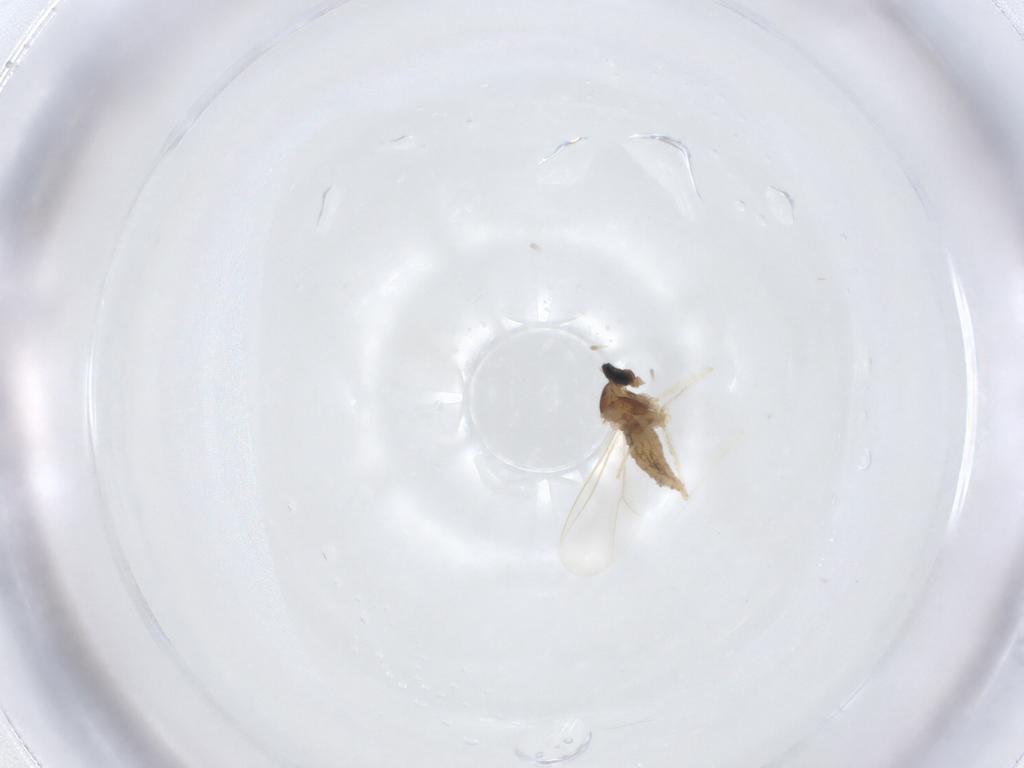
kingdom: Animalia
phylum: Arthropoda
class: Insecta
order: Diptera
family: Cecidomyiidae
